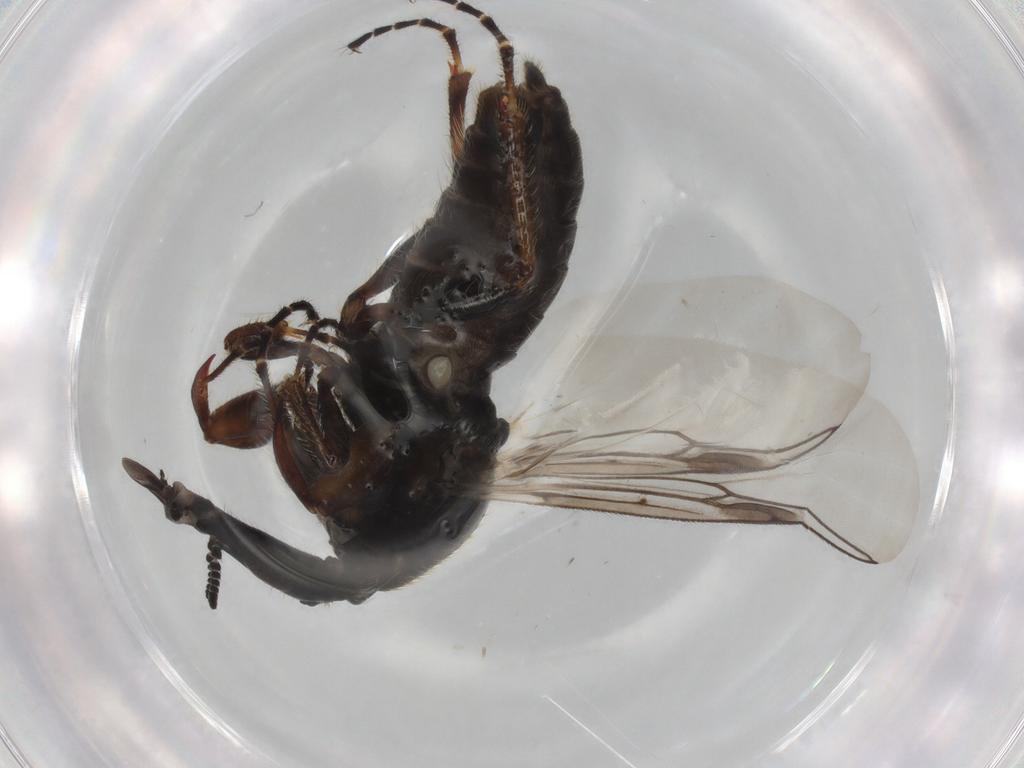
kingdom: Animalia
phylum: Arthropoda
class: Insecta
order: Diptera
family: Bibionidae
